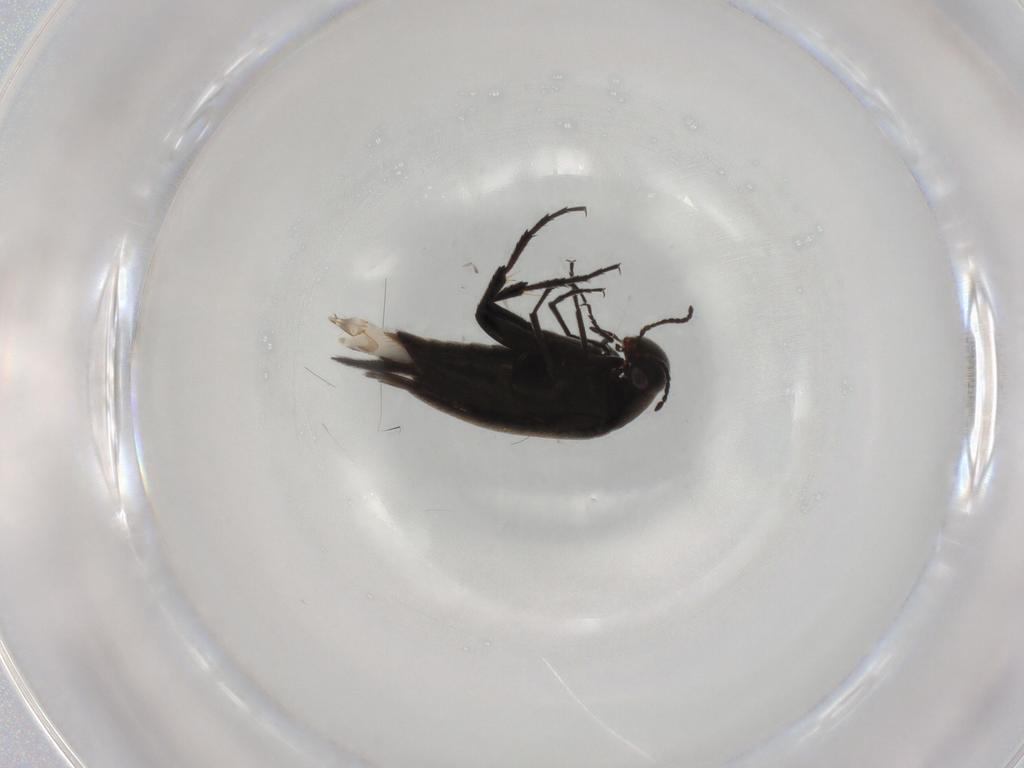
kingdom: Animalia
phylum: Arthropoda
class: Insecta
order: Coleoptera
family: Mordellidae
